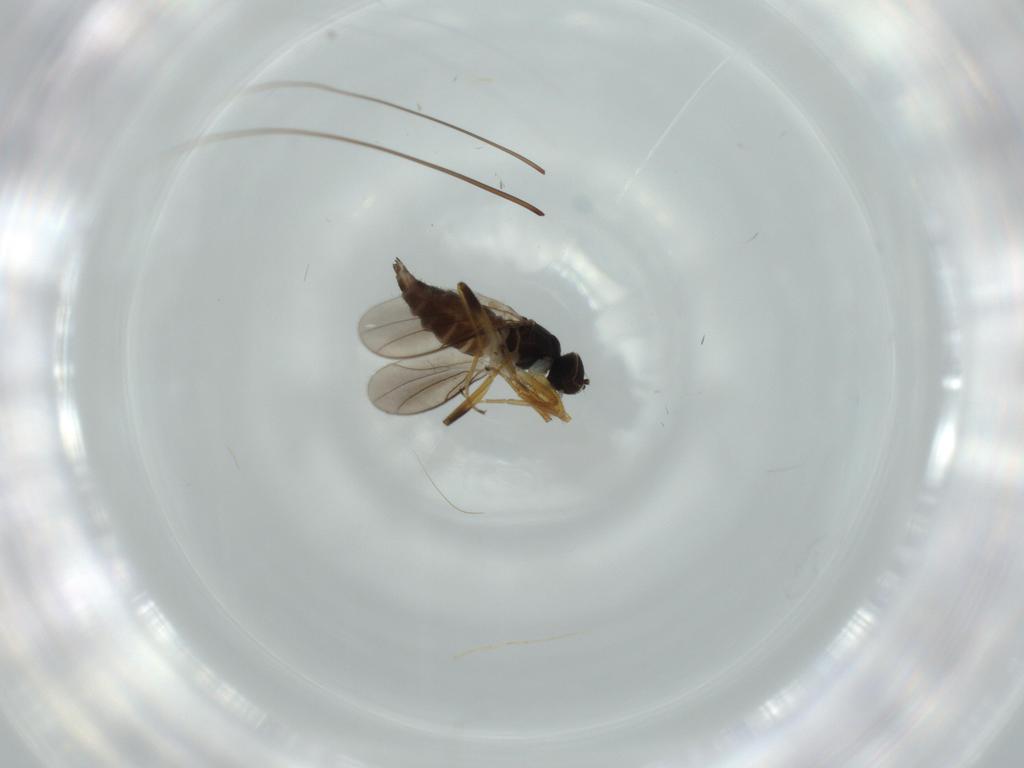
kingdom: Animalia
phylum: Arthropoda
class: Insecta
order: Diptera
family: Hybotidae
